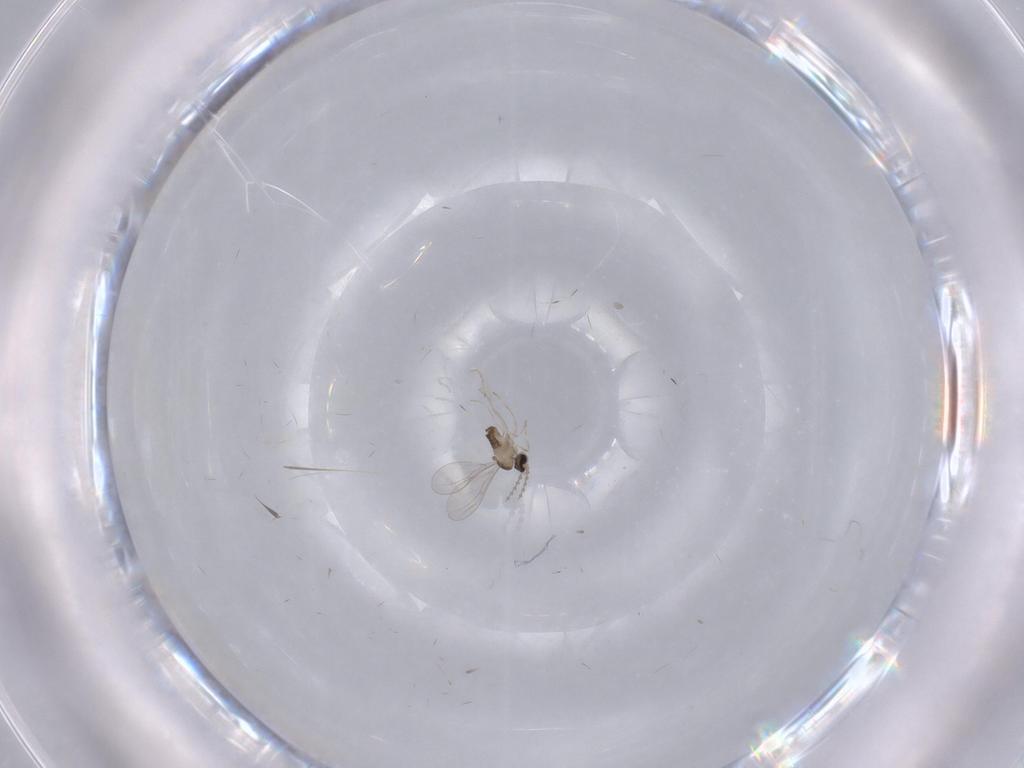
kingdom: Animalia
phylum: Arthropoda
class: Insecta
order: Diptera
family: Cecidomyiidae
